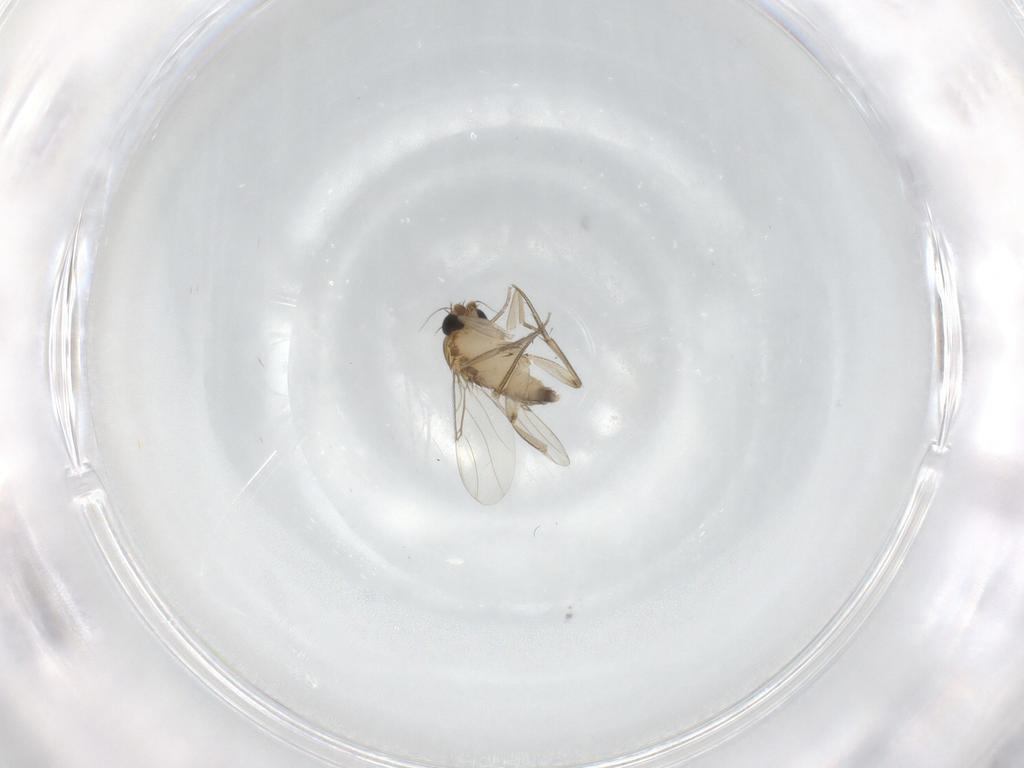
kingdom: Animalia
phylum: Arthropoda
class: Insecta
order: Diptera
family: Phoridae
